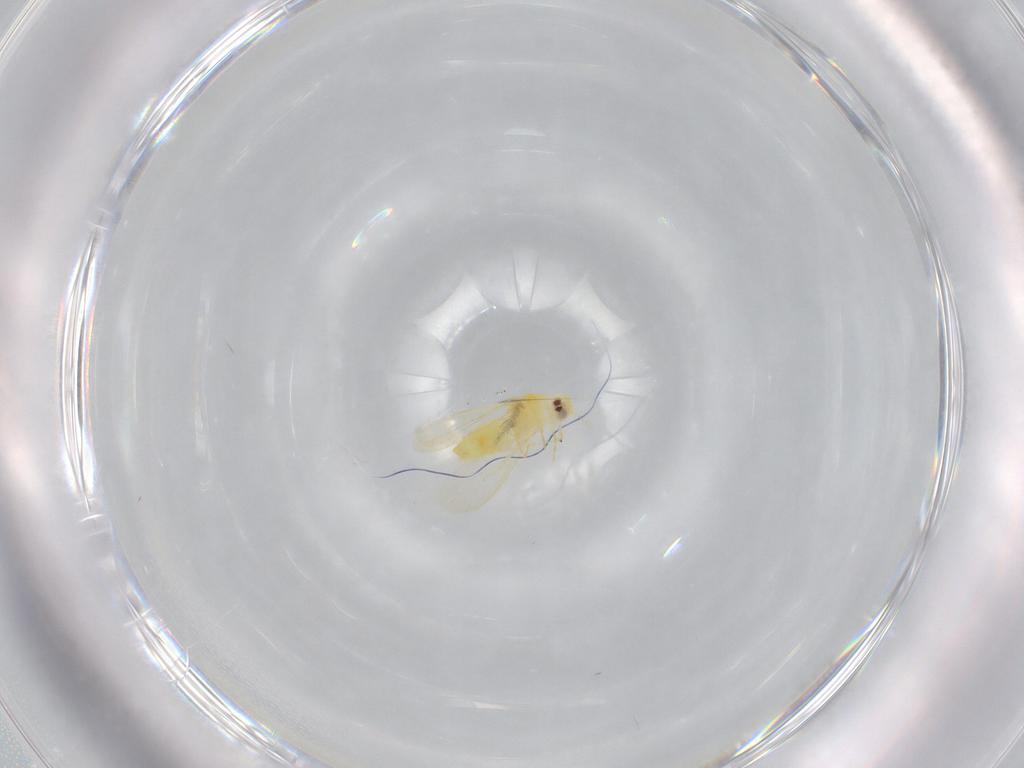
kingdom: Animalia
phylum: Arthropoda
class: Insecta
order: Hemiptera
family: Aleyrodidae
